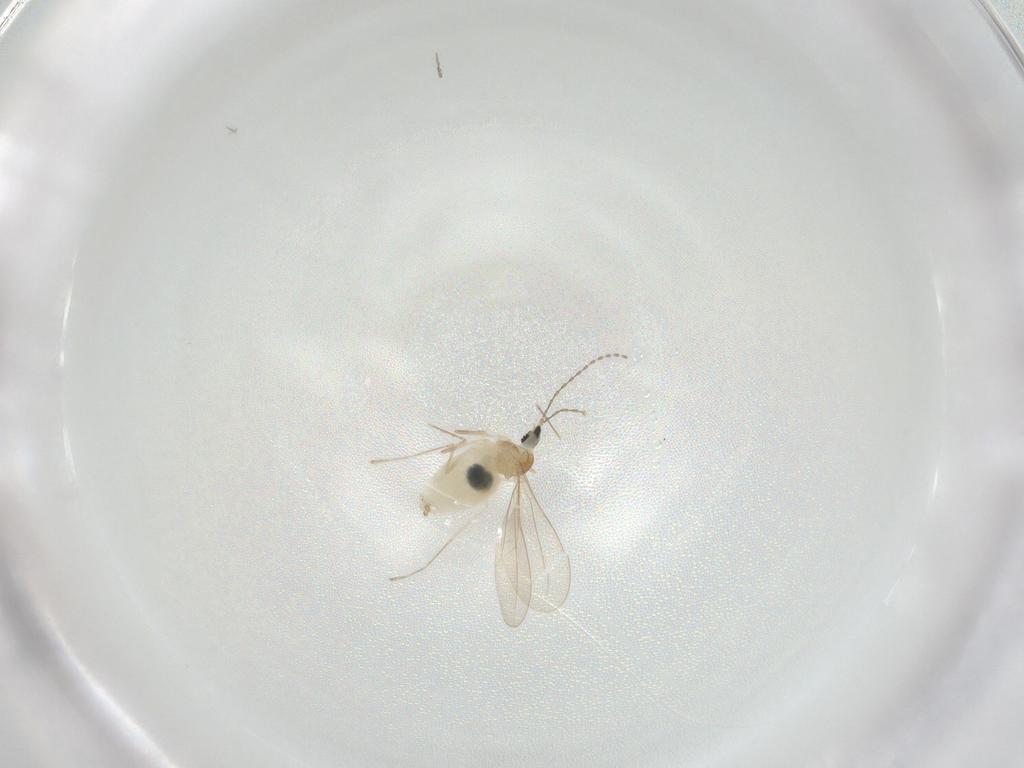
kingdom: Animalia
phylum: Arthropoda
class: Insecta
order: Diptera
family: Cecidomyiidae
